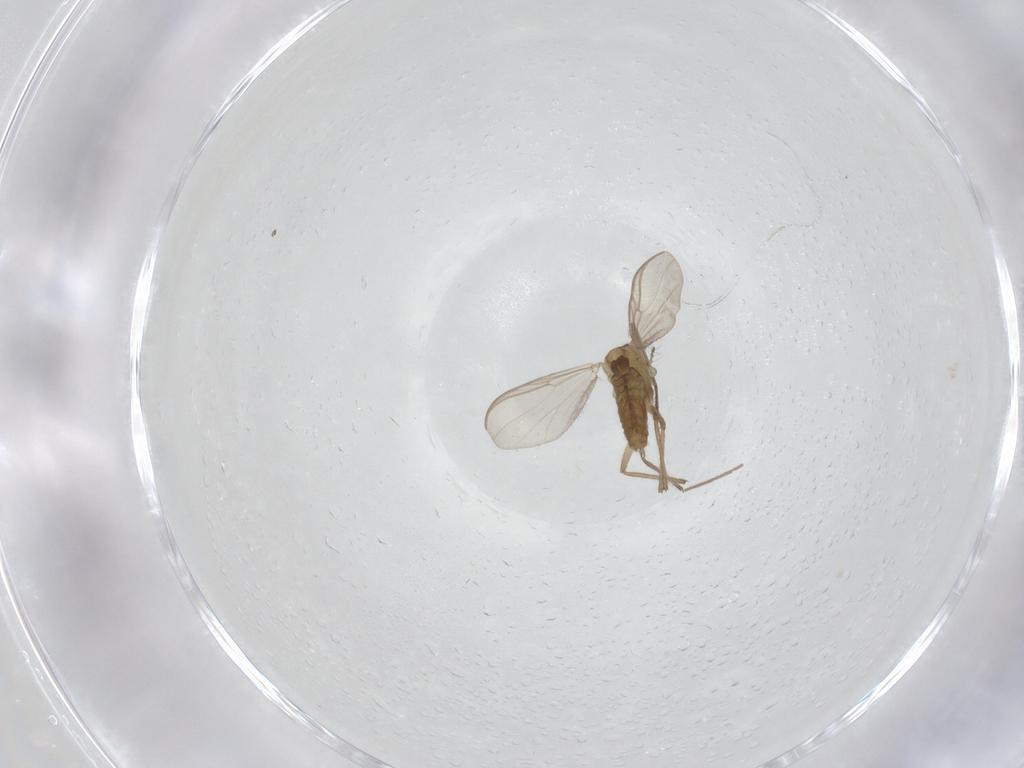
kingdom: Animalia
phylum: Arthropoda
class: Insecta
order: Diptera
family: Chironomidae
